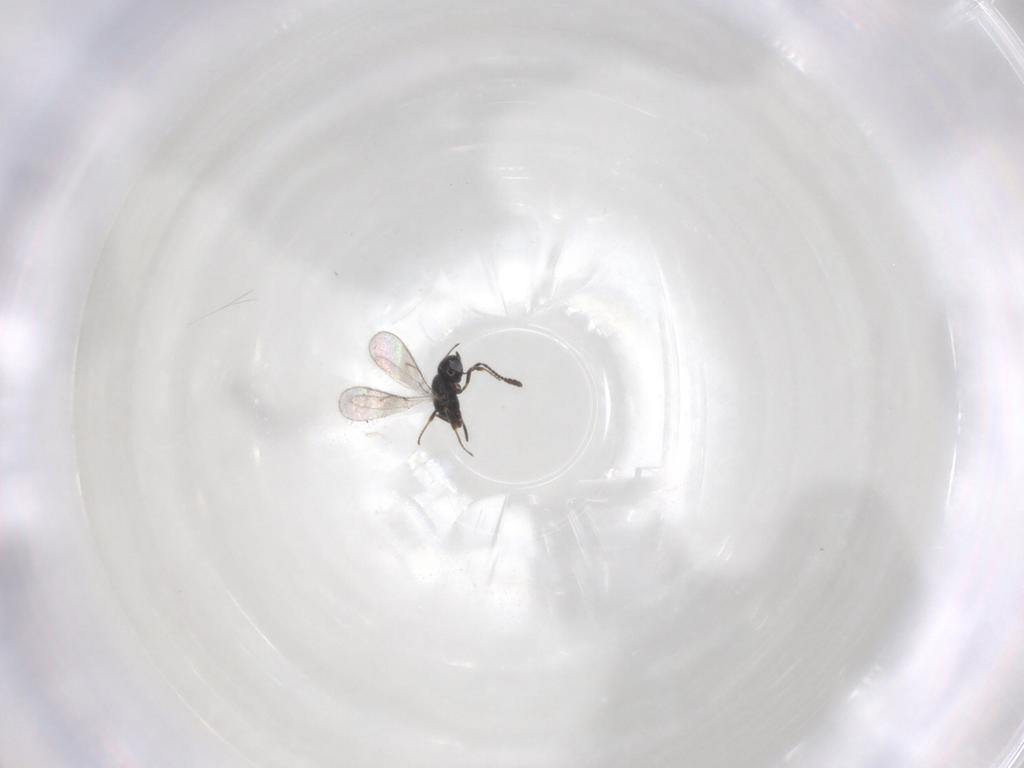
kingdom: Animalia
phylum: Arthropoda
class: Insecta
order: Hymenoptera
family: Scelionidae
